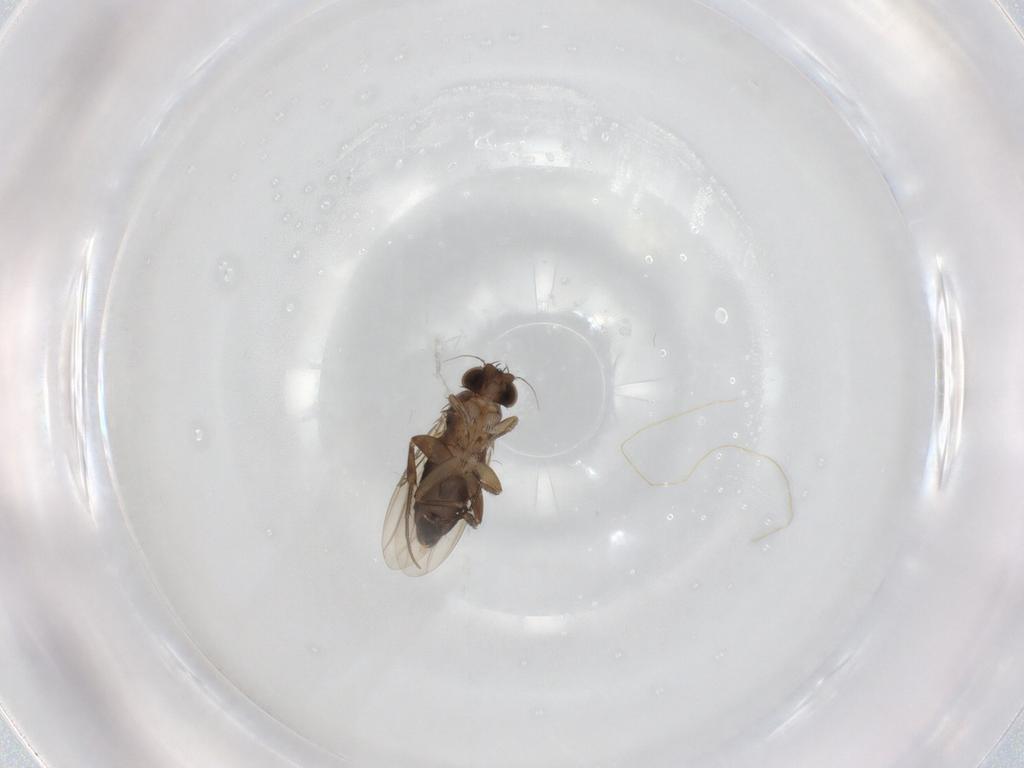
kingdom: Animalia
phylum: Arthropoda
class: Insecta
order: Diptera
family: Phoridae
